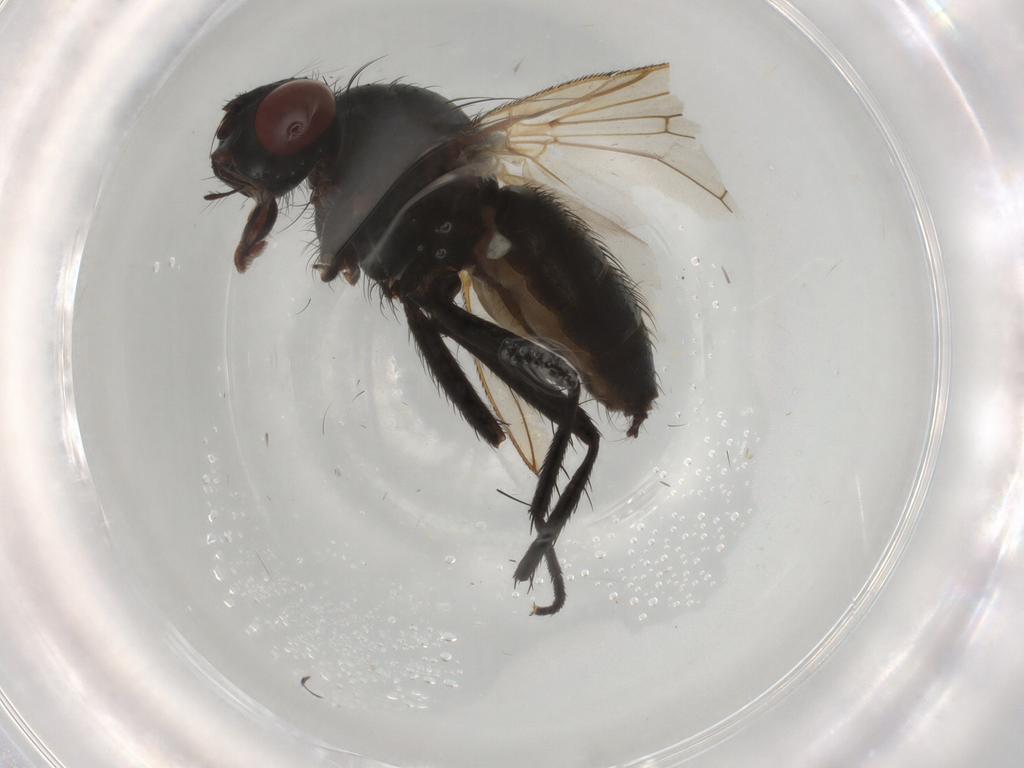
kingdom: Animalia
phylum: Arthropoda
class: Insecta
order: Diptera
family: Anthomyiidae
